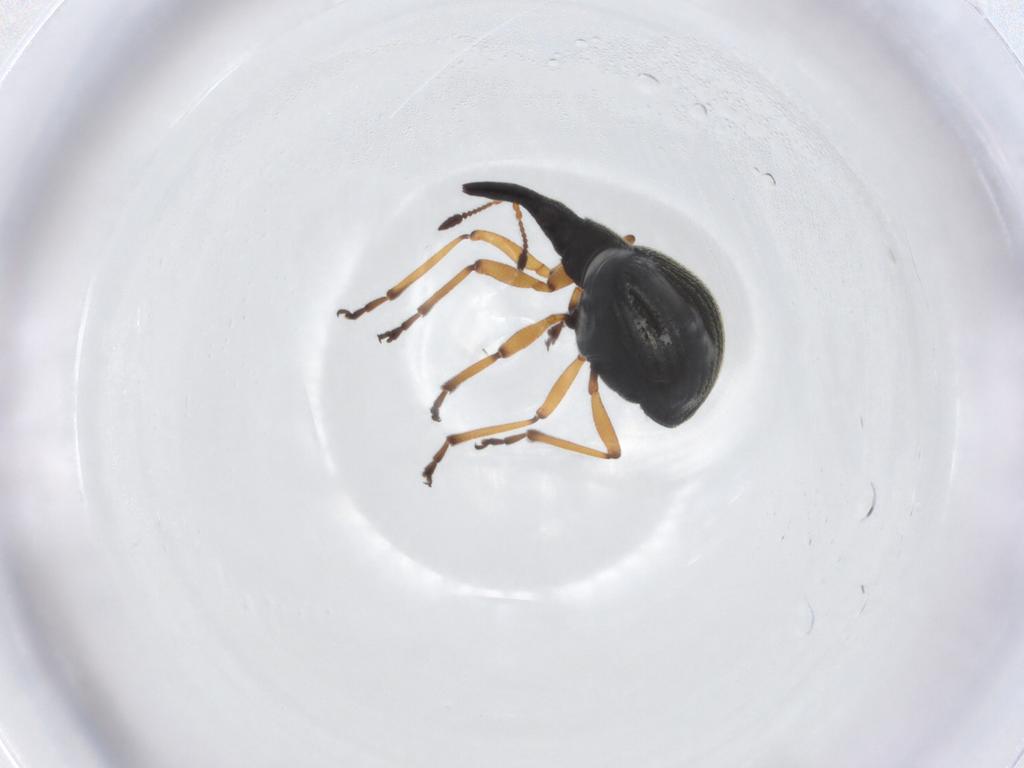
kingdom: Animalia
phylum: Arthropoda
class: Insecta
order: Coleoptera
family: Brentidae
